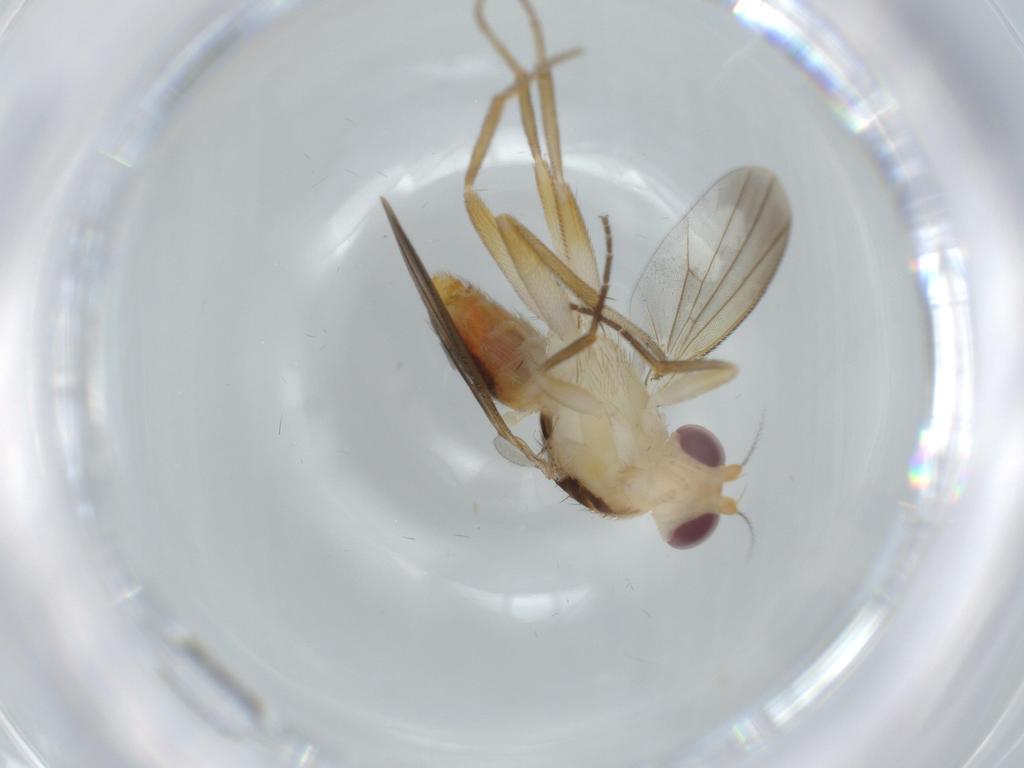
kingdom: Animalia
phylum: Arthropoda
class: Insecta
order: Diptera
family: Agromyzidae
